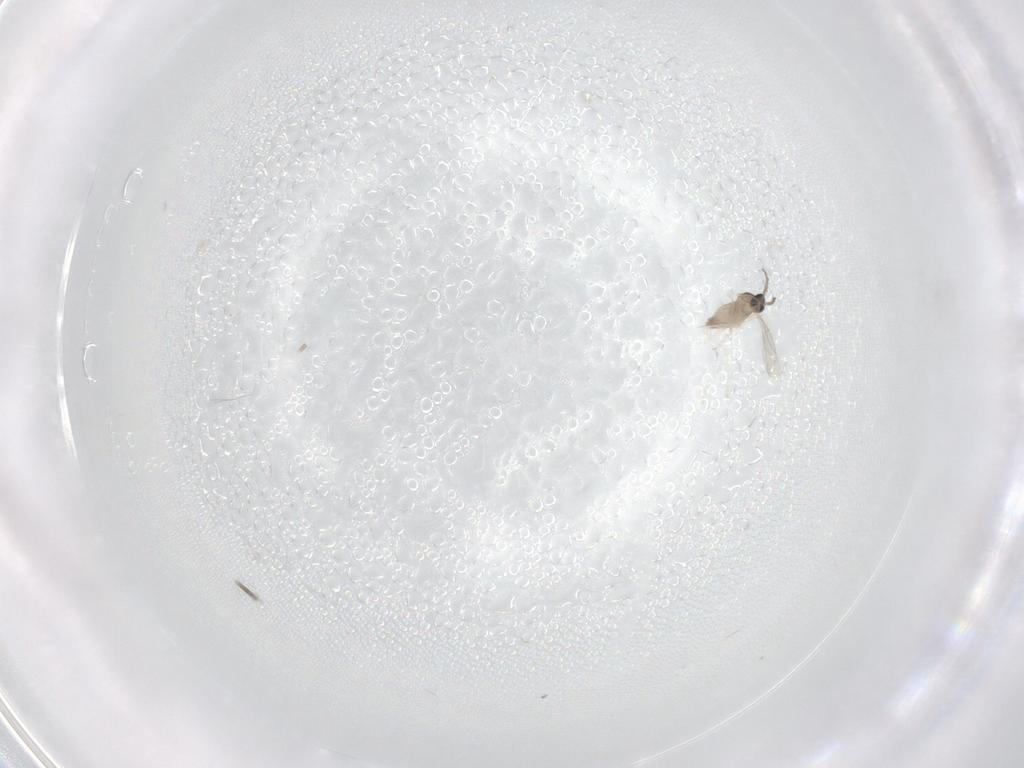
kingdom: Animalia
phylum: Arthropoda
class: Insecta
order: Diptera
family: Cecidomyiidae
